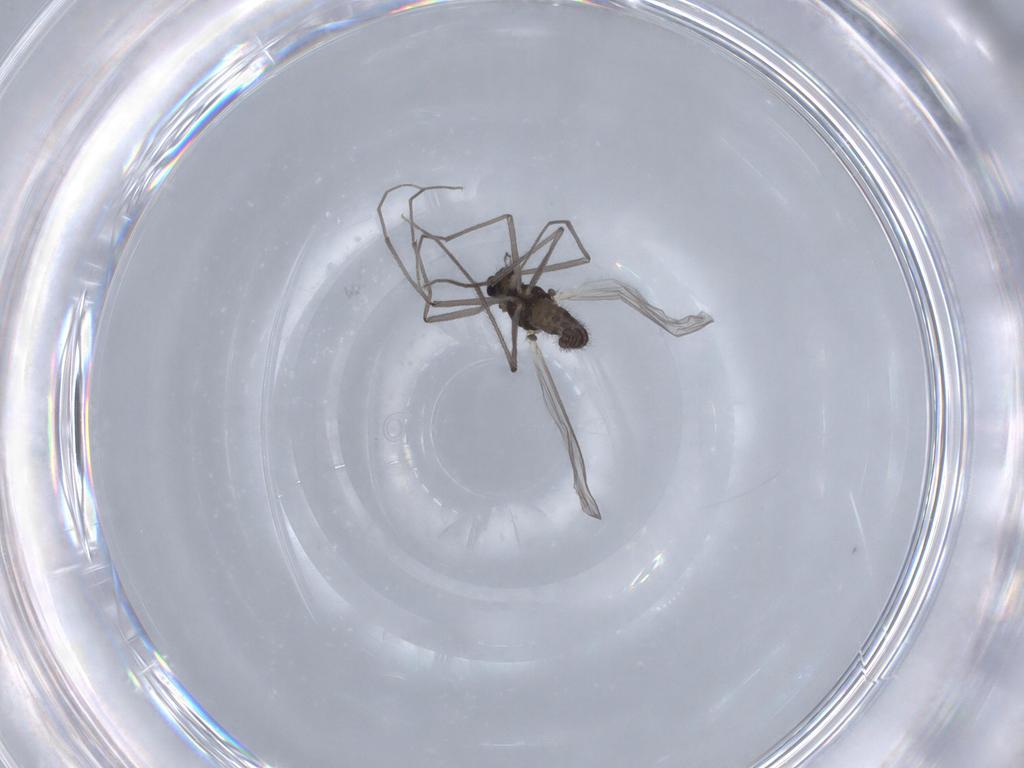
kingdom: Animalia
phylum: Arthropoda
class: Insecta
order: Diptera
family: Chironomidae
